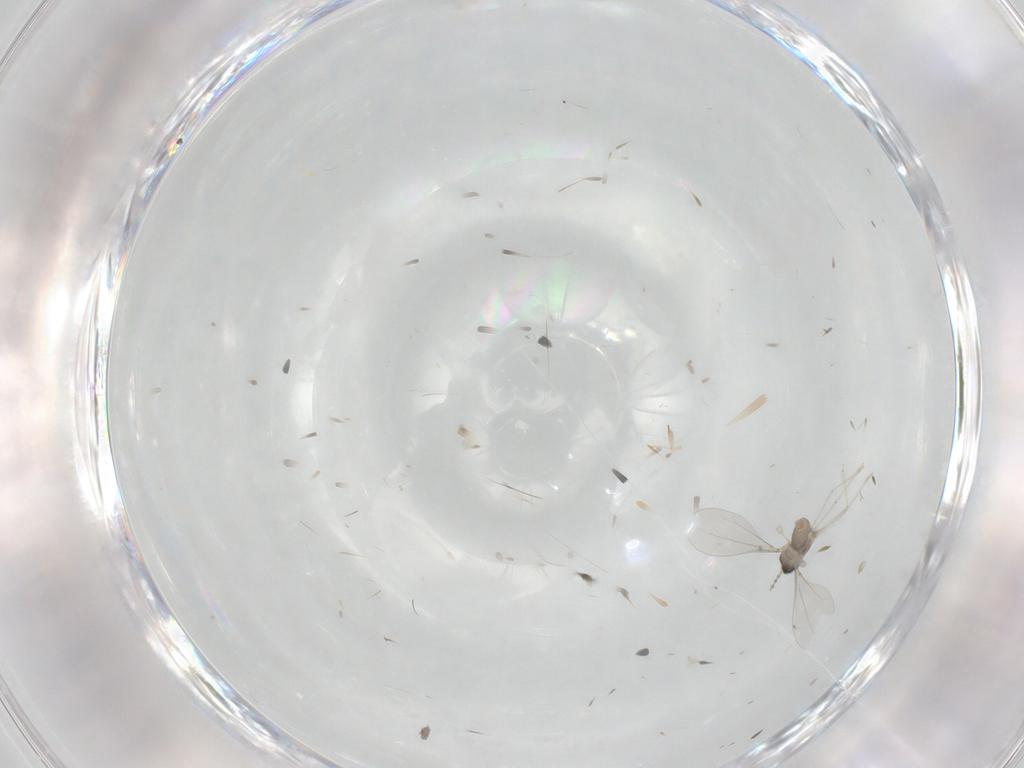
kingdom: Animalia
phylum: Arthropoda
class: Insecta
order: Diptera
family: Cecidomyiidae
